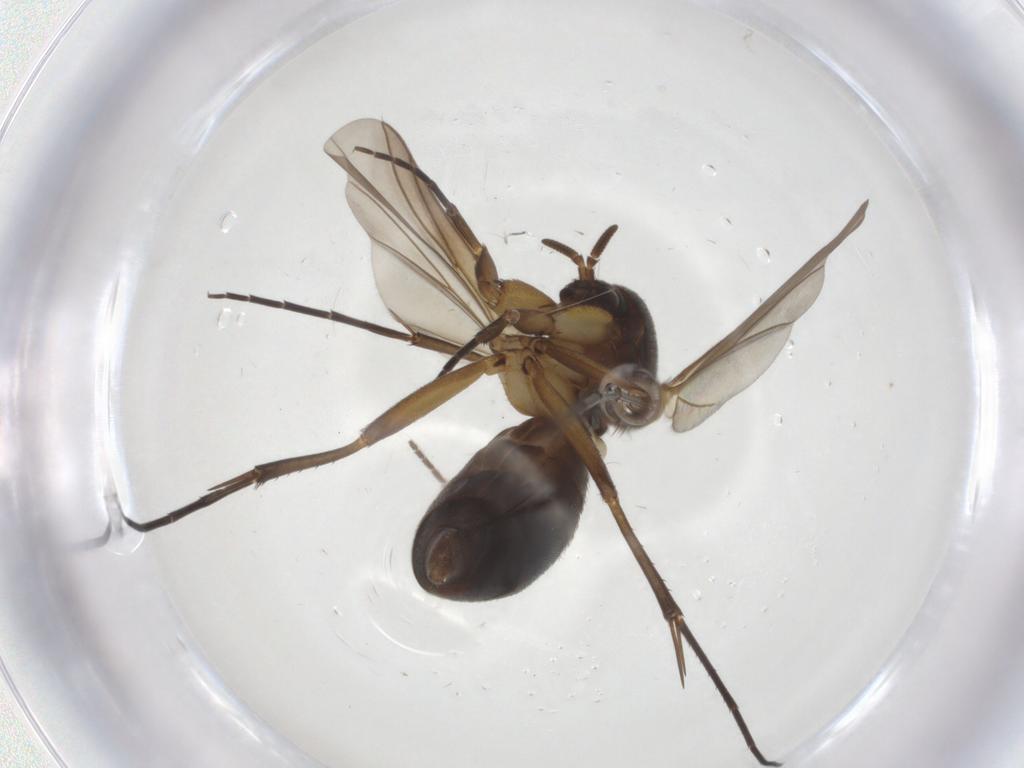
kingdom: Animalia
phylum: Arthropoda
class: Insecta
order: Diptera
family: Mycetophilidae
